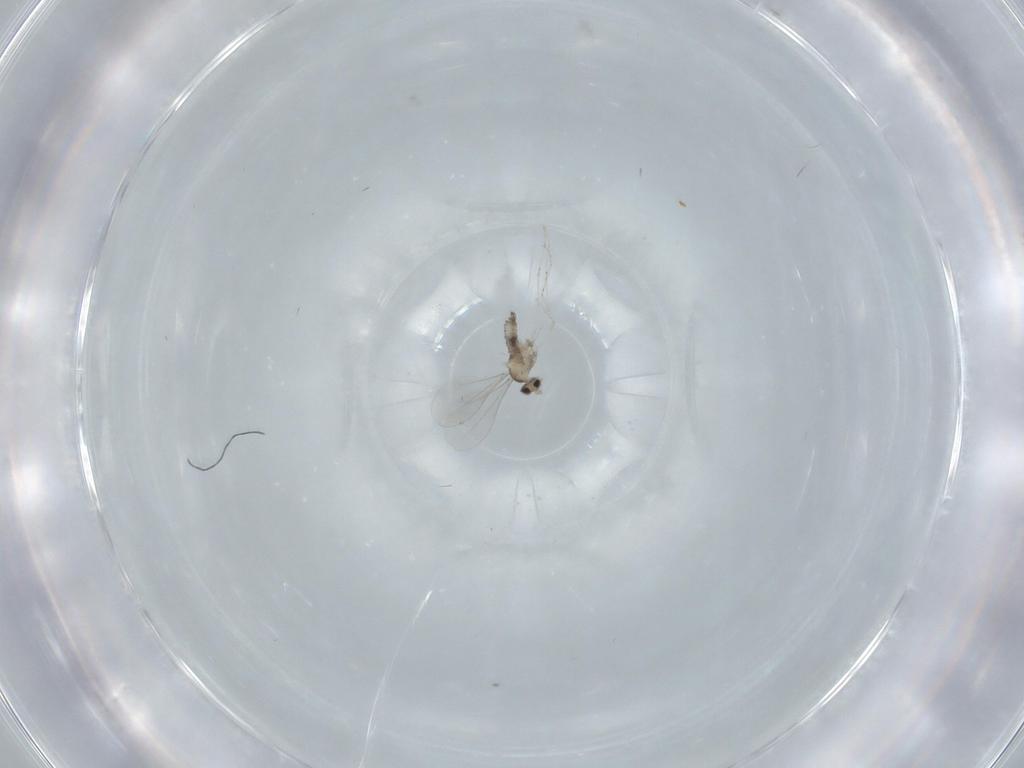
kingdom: Animalia
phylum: Arthropoda
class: Insecta
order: Diptera
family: Cecidomyiidae
